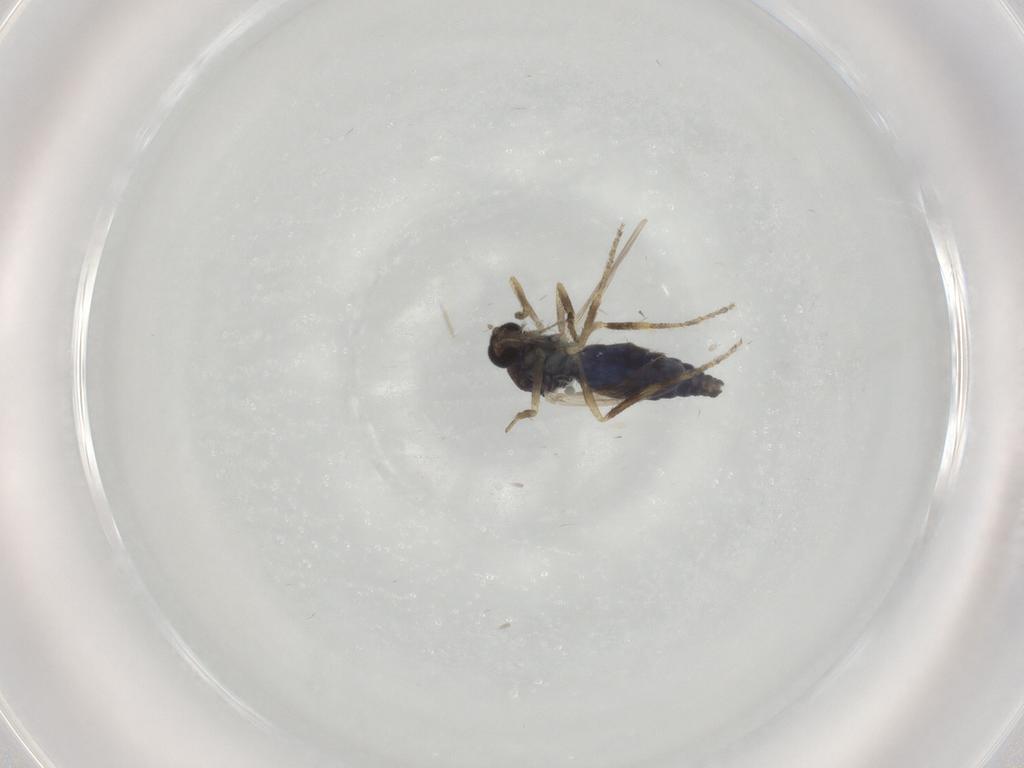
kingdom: Animalia
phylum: Arthropoda
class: Insecta
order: Diptera
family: Ceratopogonidae
